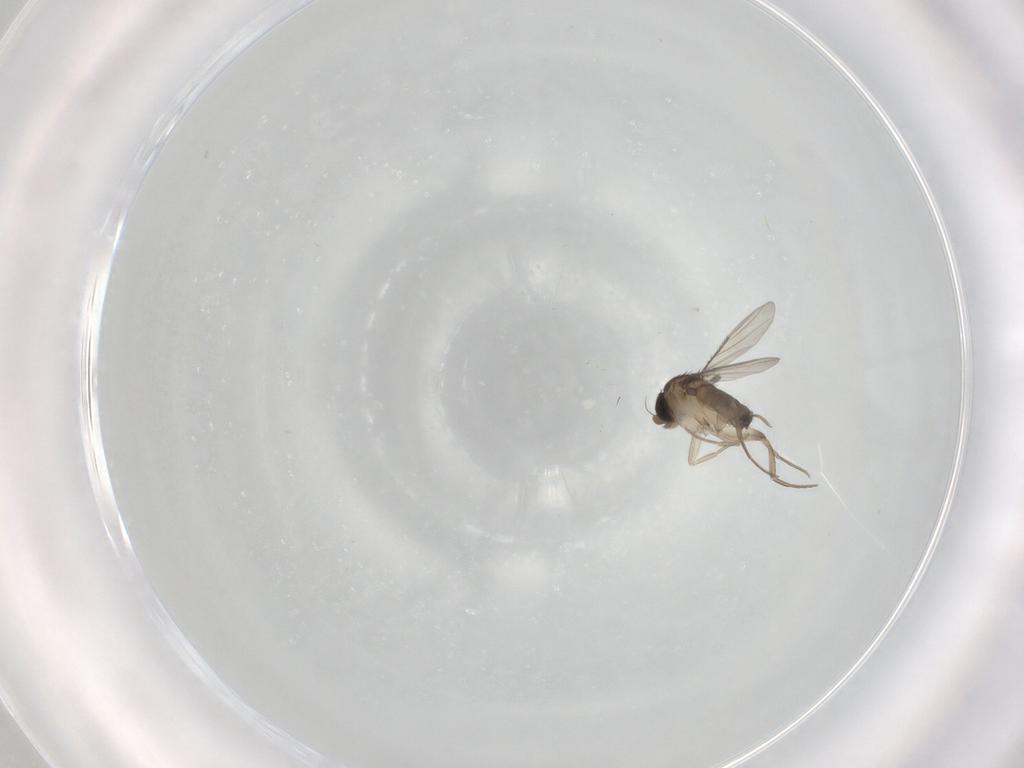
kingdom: Animalia
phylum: Arthropoda
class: Insecta
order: Diptera
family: Phoridae
